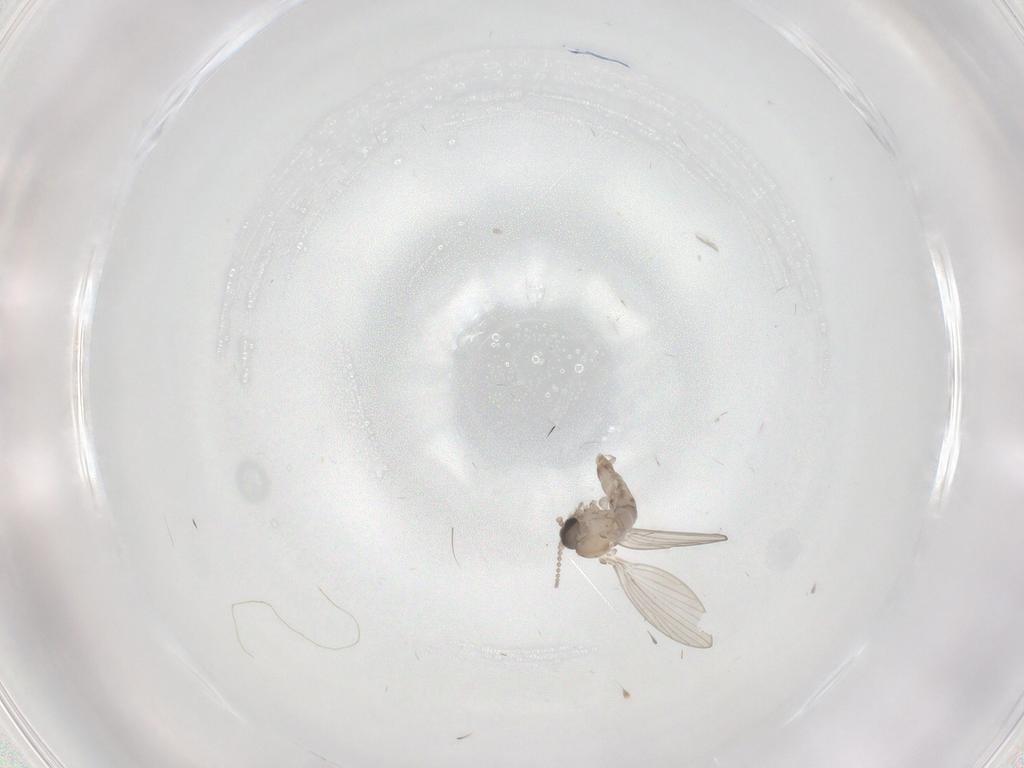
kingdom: Animalia
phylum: Arthropoda
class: Insecta
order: Diptera
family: Psychodidae
